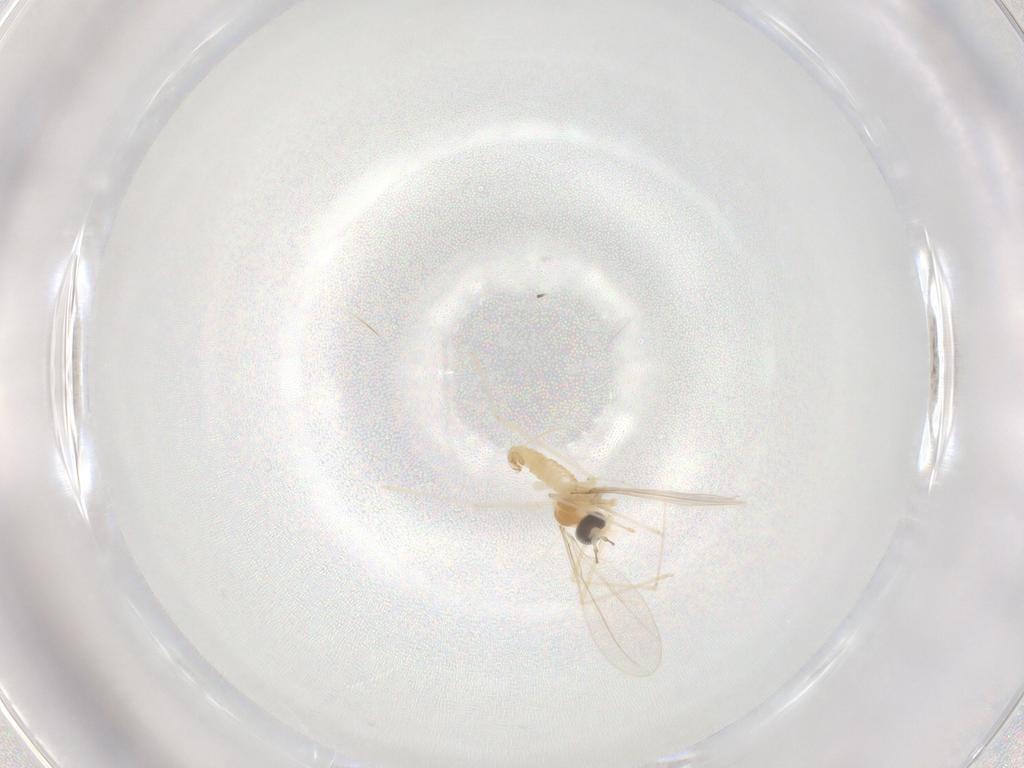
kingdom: Animalia
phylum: Arthropoda
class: Insecta
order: Diptera
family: Cecidomyiidae
